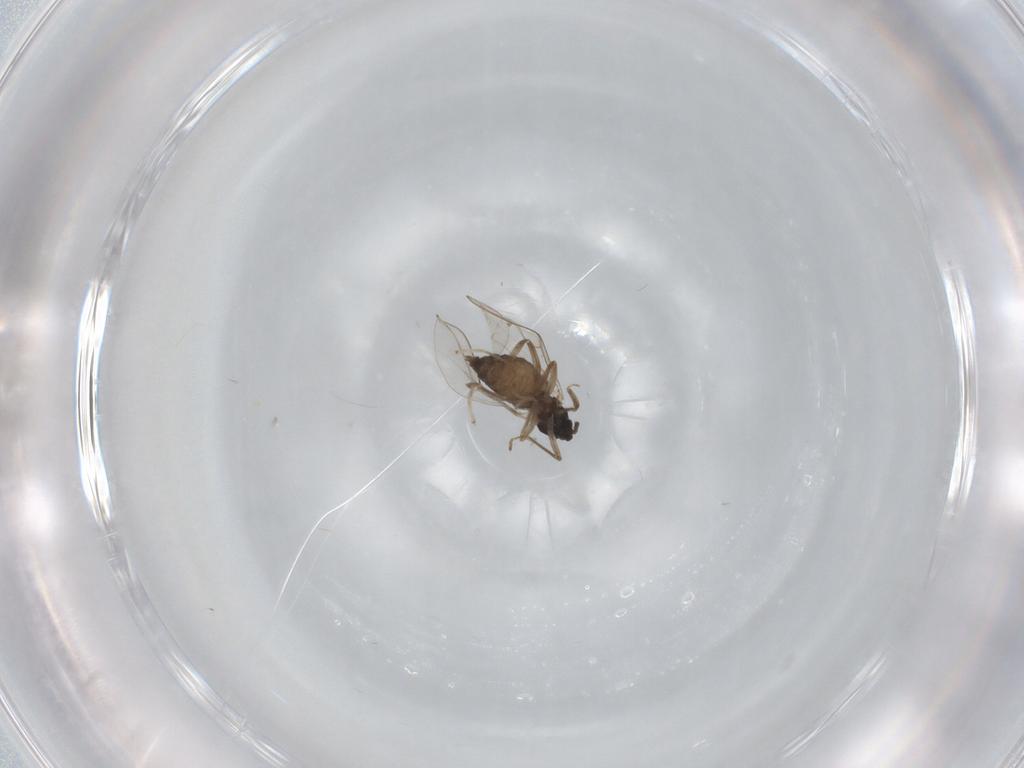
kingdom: Animalia
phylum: Arthropoda
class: Insecta
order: Diptera
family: Cecidomyiidae
